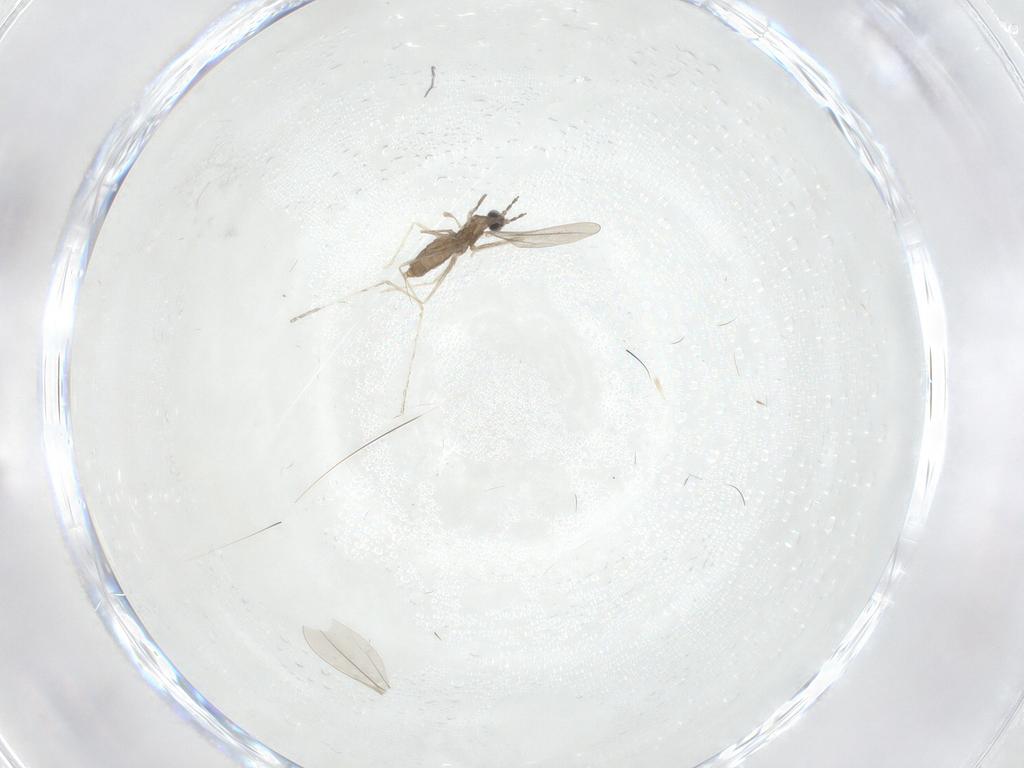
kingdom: Animalia
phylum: Arthropoda
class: Insecta
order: Diptera
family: Cecidomyiidae
